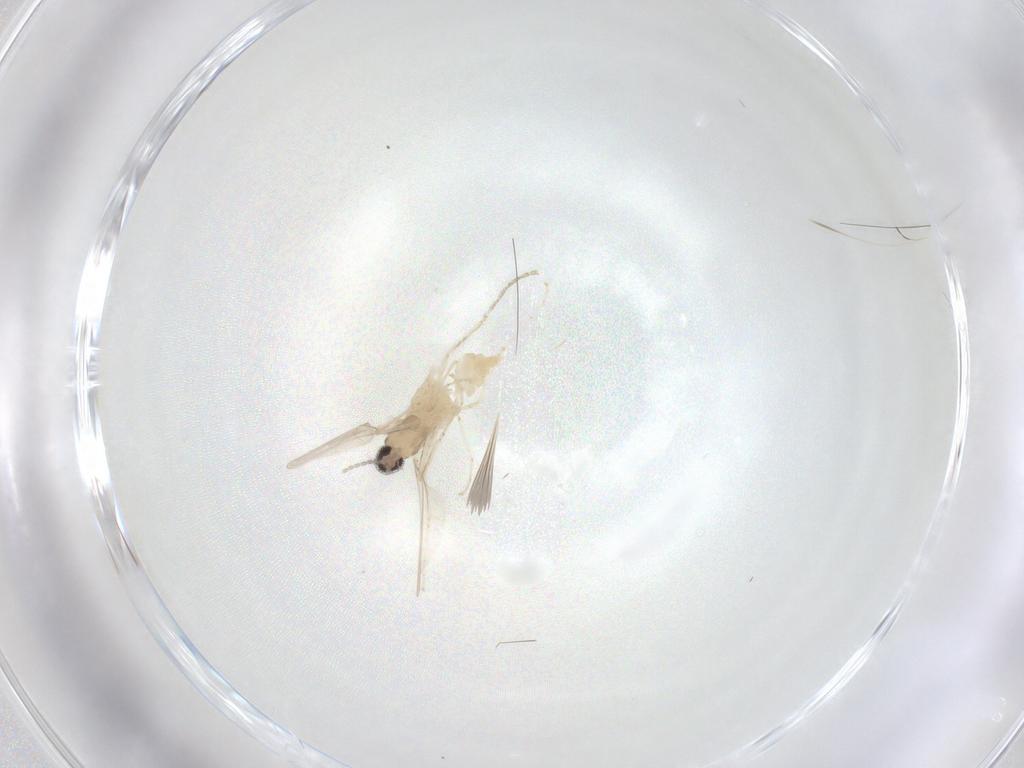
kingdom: Animalia
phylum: Arthropoda
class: Insecta
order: Diptera
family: Cecidomyiidae
